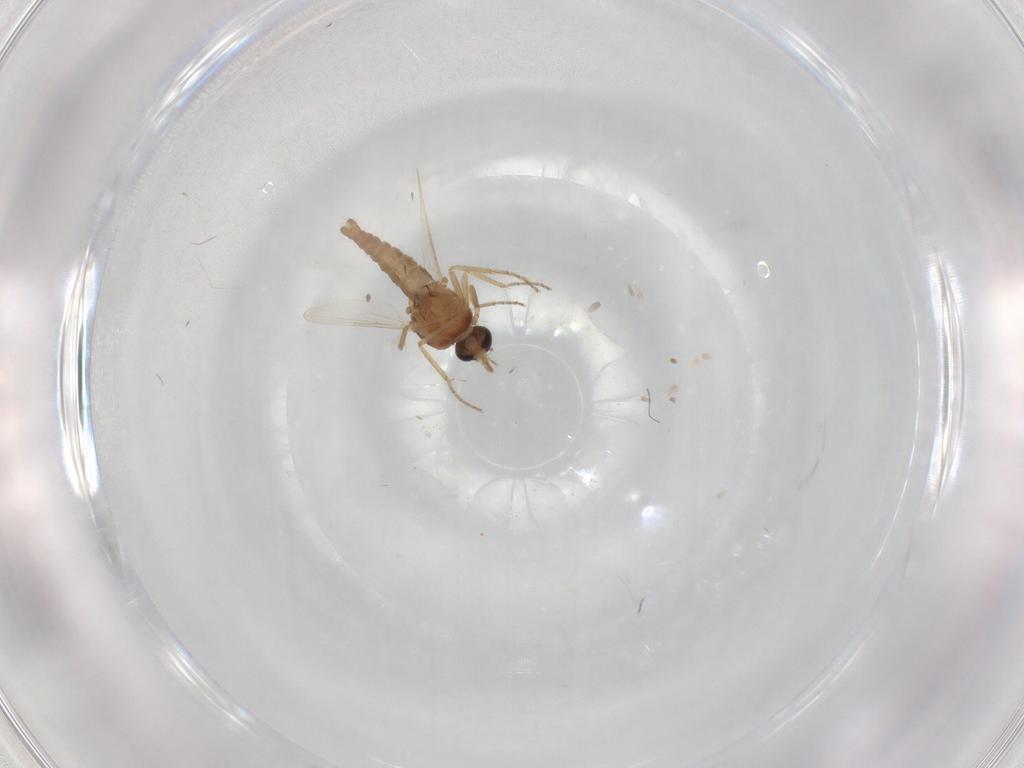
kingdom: Animalia
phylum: Arthropoda
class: Insecta
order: Diptera
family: Ceratopogonidae
